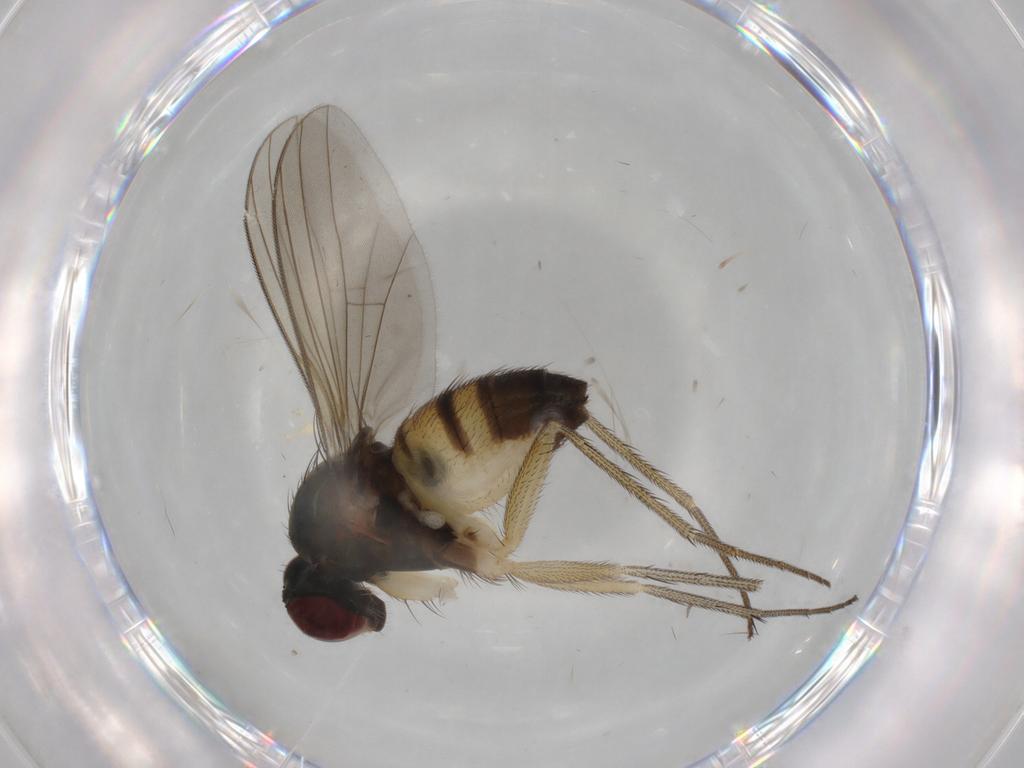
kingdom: Animalia
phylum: Arthropoda
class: Insecta
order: Diptera
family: Dolichopodidae
